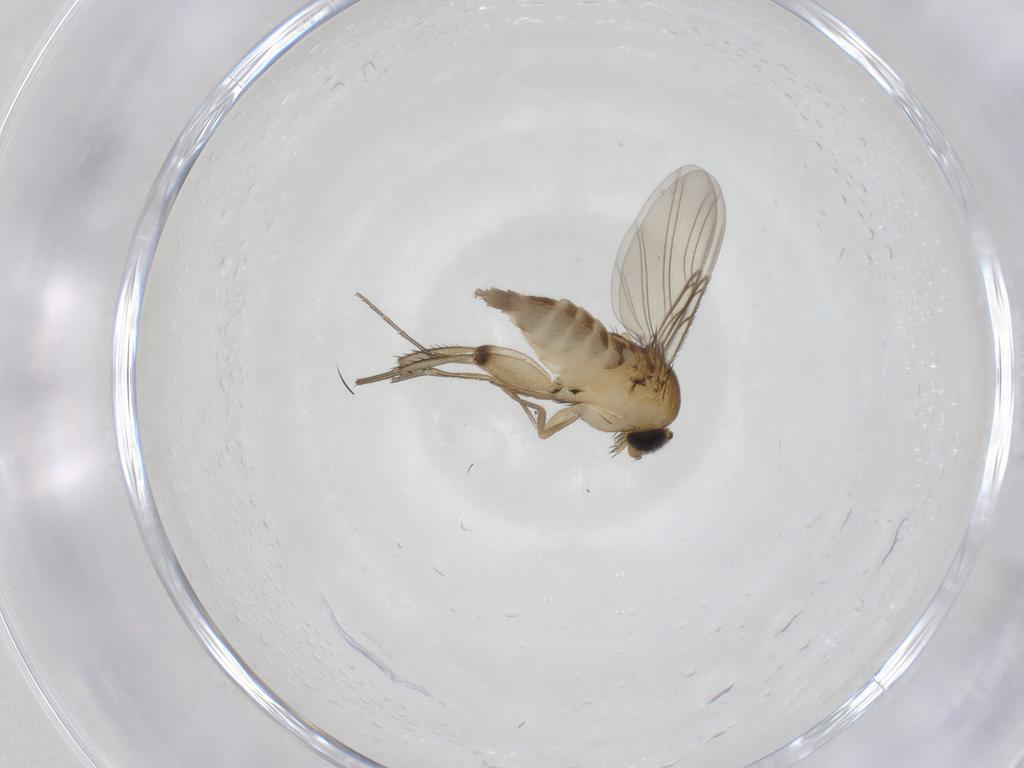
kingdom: Animalia
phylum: Arthropoda
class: Insecta
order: Diptera
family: Phoridae
